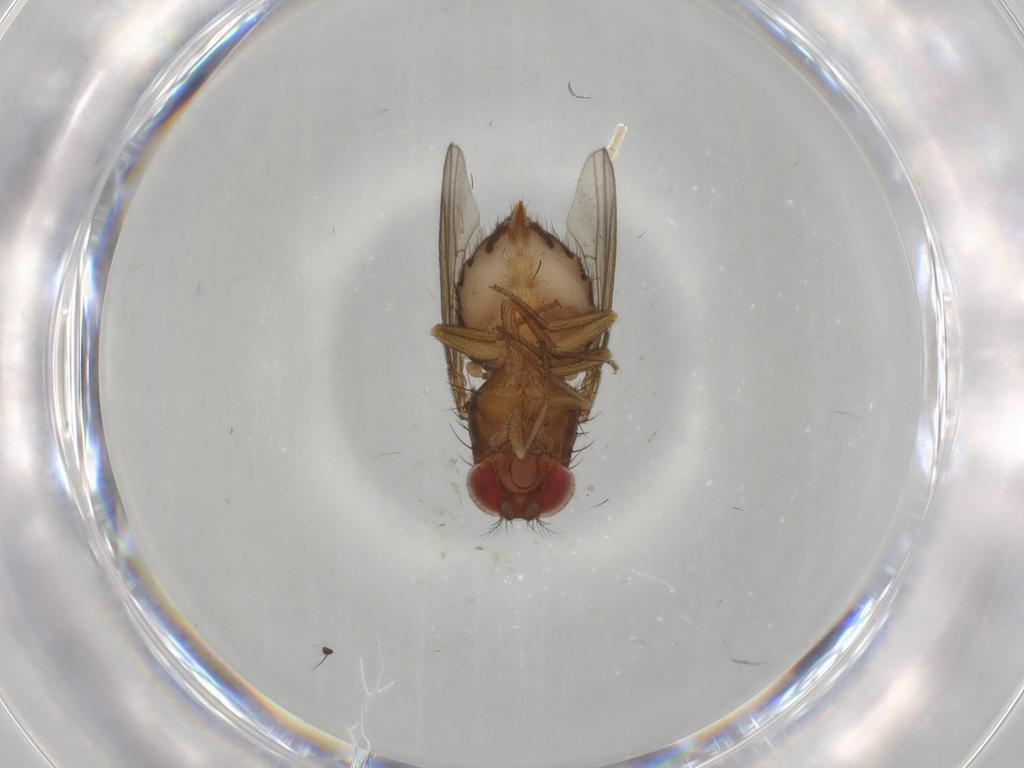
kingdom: Animalia
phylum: Arthropoda
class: Insecta
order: Diptera
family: Drosophilidae
